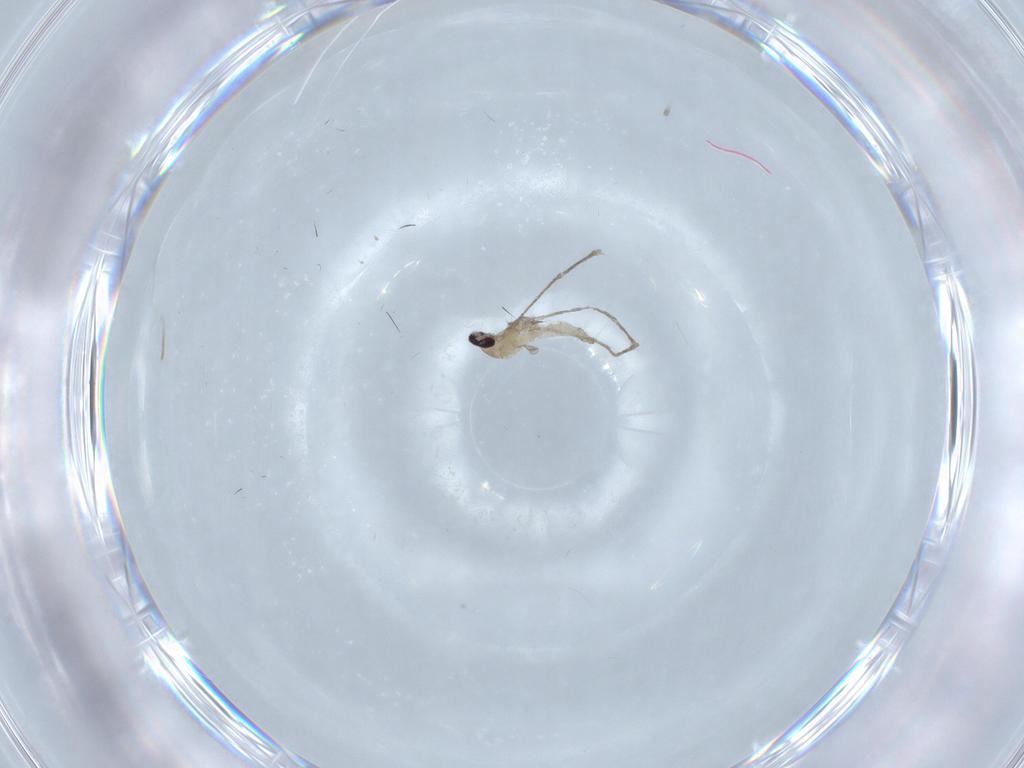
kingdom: Animalia
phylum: Arthropoda
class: Insecta
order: Diptera
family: Cecidomyiidae
